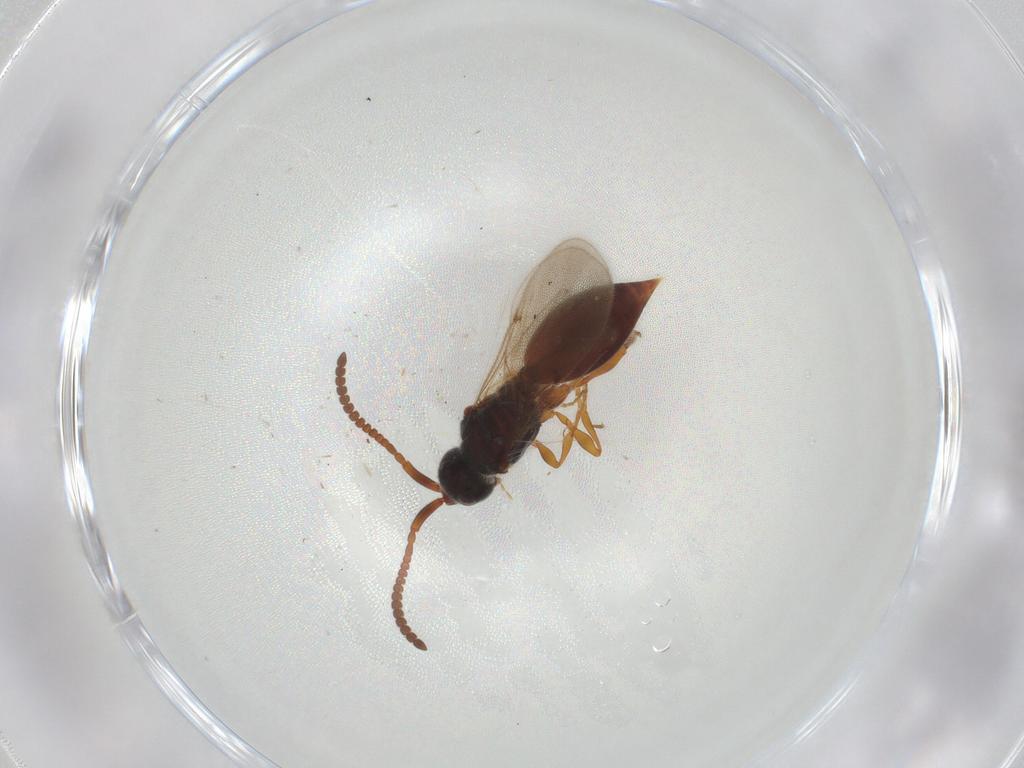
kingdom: Animalia
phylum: Arthropoda
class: Insecta
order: Hymenoptera
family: Diapriidae
